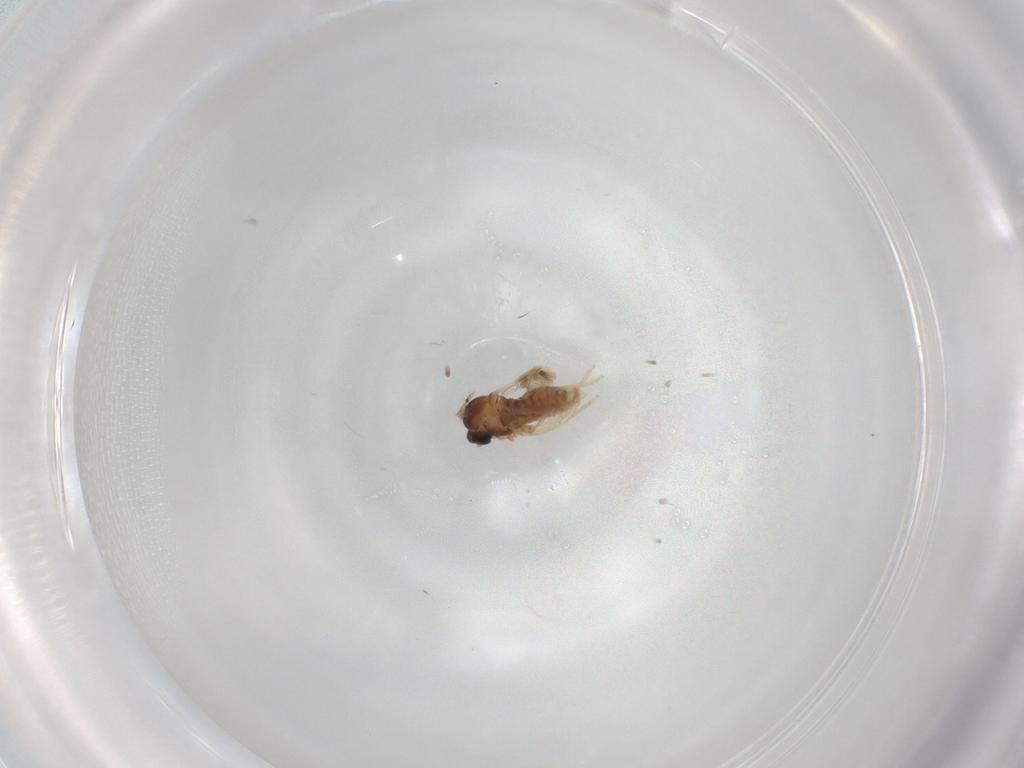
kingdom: Animalia
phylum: Arthropoda
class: Insecta
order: Diptera
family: Cecidomyiidae
